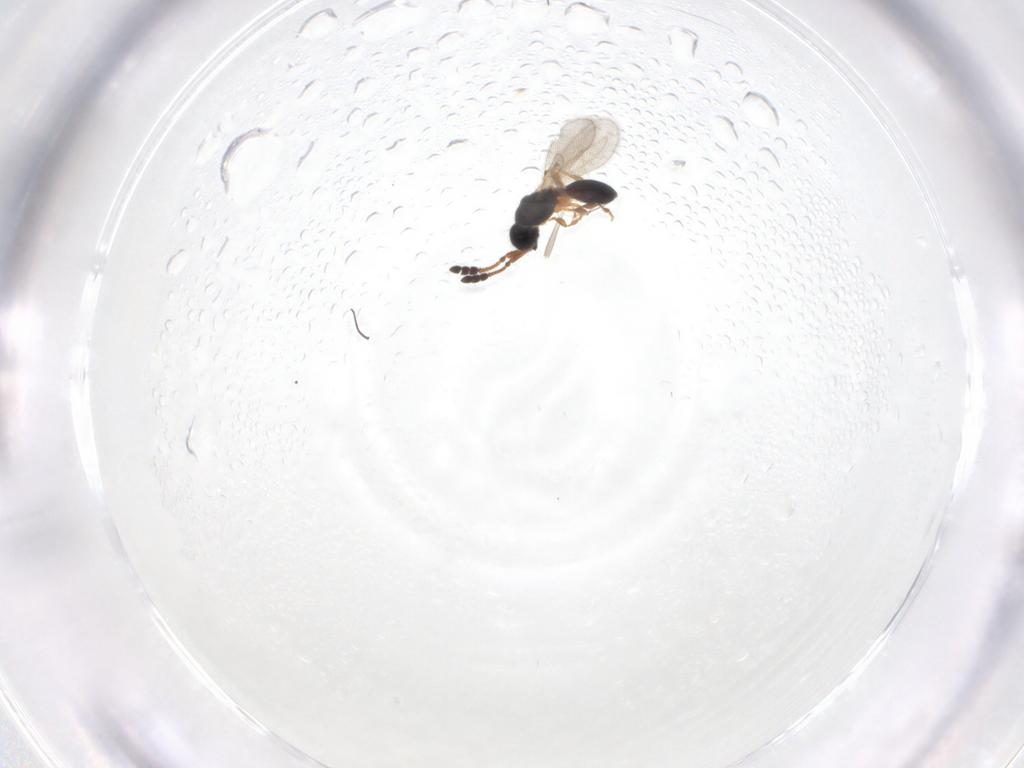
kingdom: Animalia
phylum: Arthropoda
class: Insecta
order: Hymenoptera
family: Diapriidae
